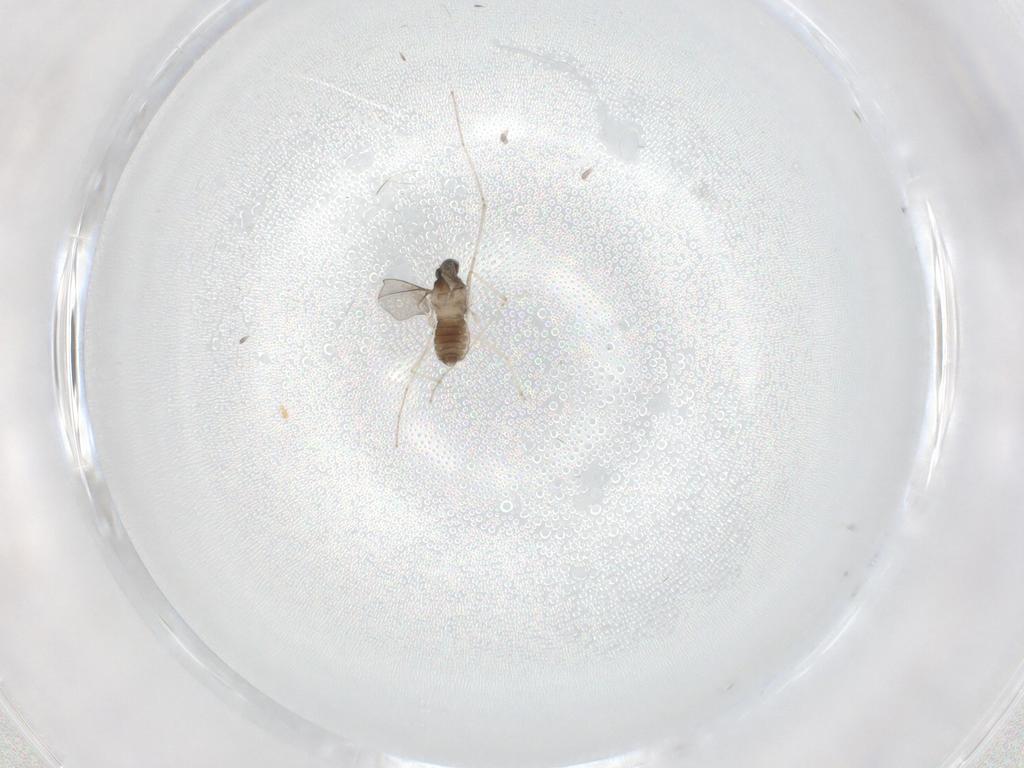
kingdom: Animalia
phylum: Arthropoda
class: Insecta
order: Diptera
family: Cecidomyiidae
